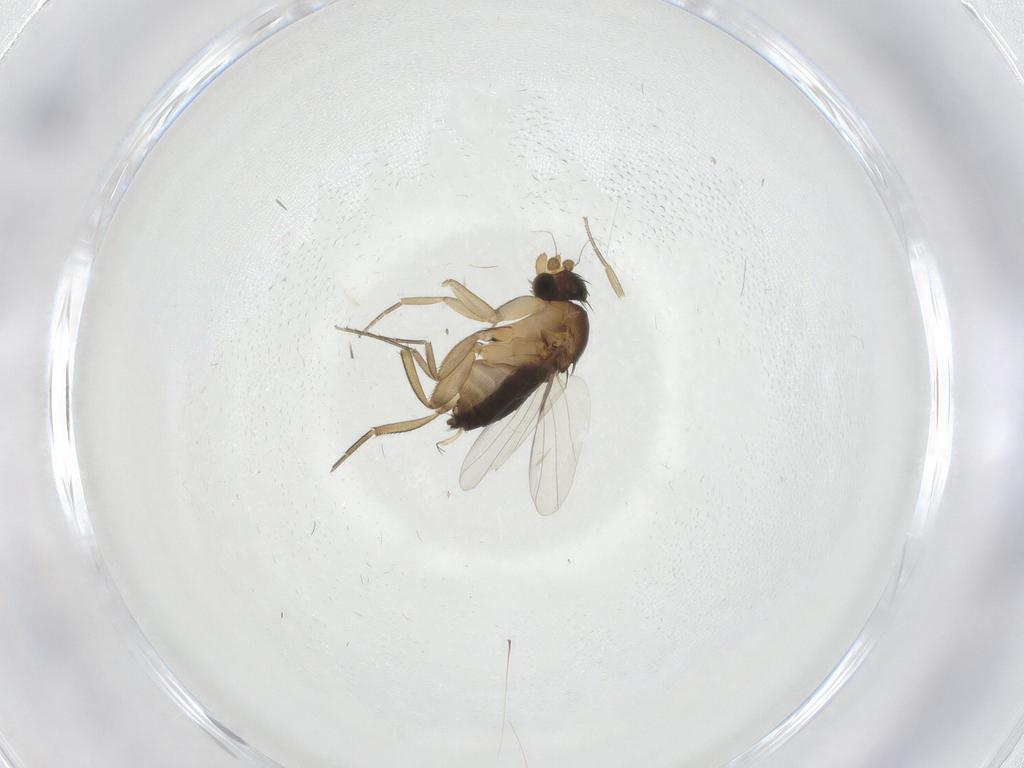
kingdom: Animalia
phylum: Arthropoda
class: Insecta
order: Diptera
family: Phoridae
